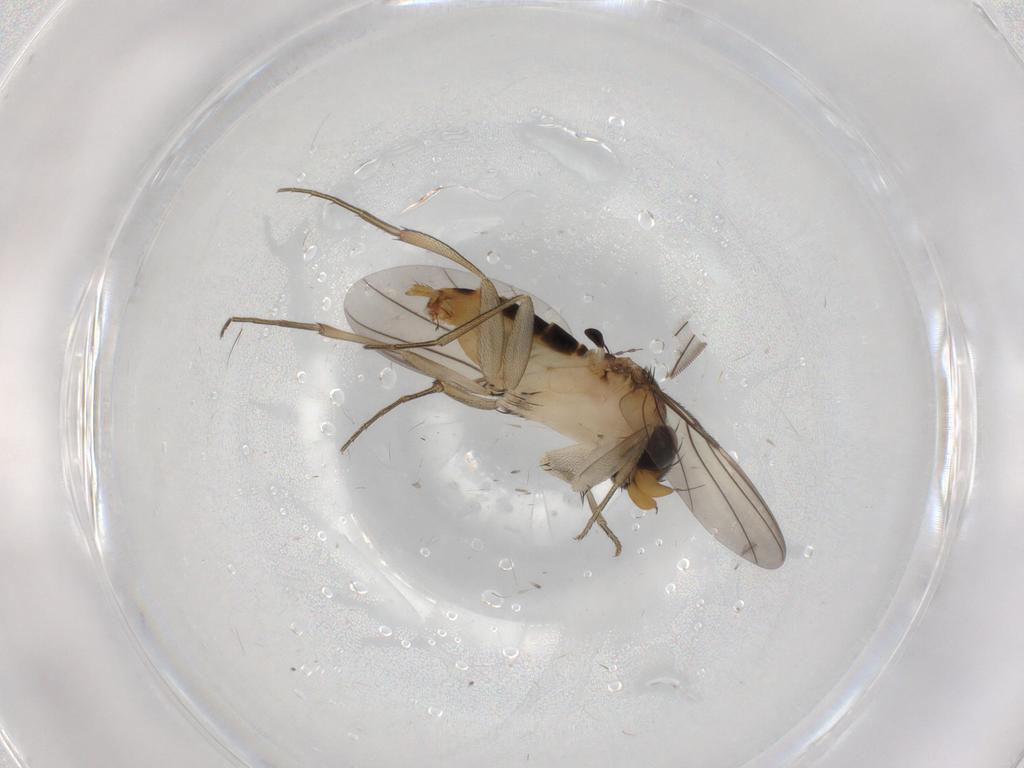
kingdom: Animalia
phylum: Arthropoda
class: Insecta
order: Diptera
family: Phoridae
